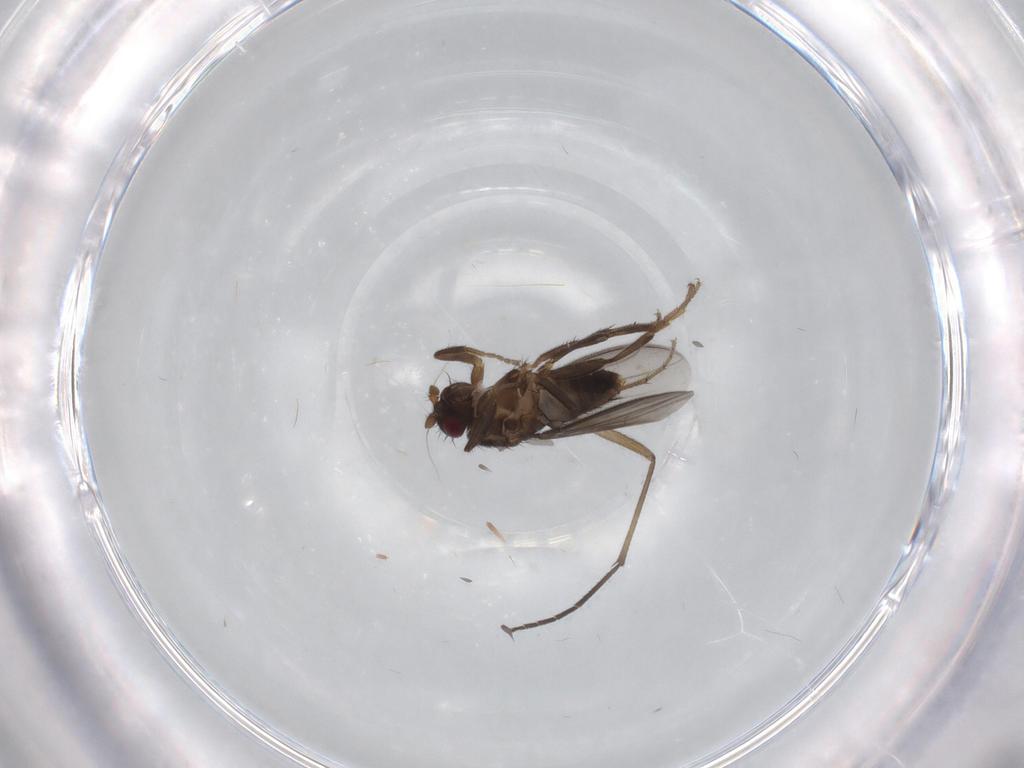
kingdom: Animalia
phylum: Arthropoda
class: Insecta
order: Diptera
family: Sphaeroceridae
